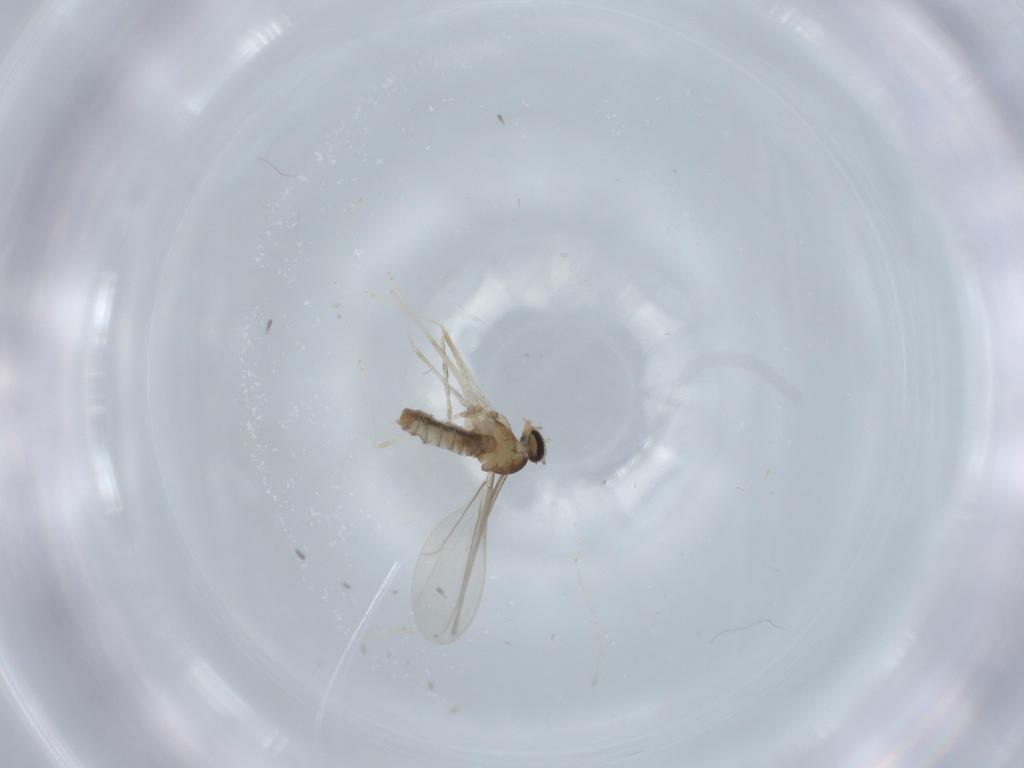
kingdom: Animalia
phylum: Arthropoda
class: Insecta
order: Diptera
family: Cecidomyiidae
